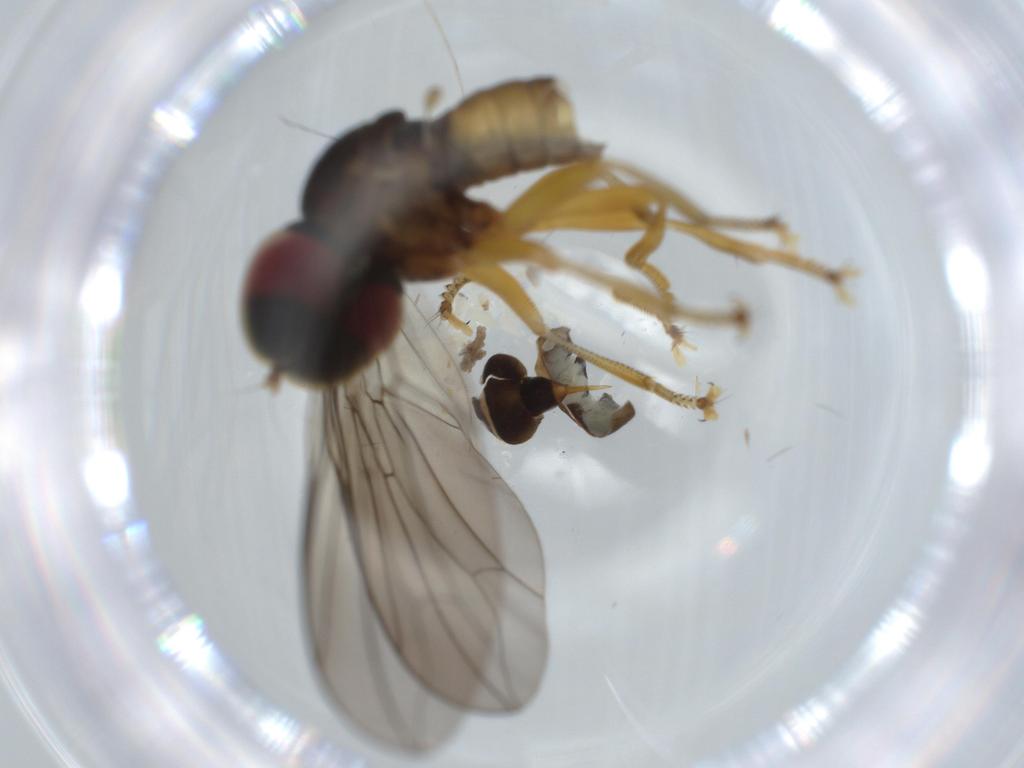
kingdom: Animalia
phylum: Arthropoda
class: Insecta
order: Diptera
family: Pipunculidae
